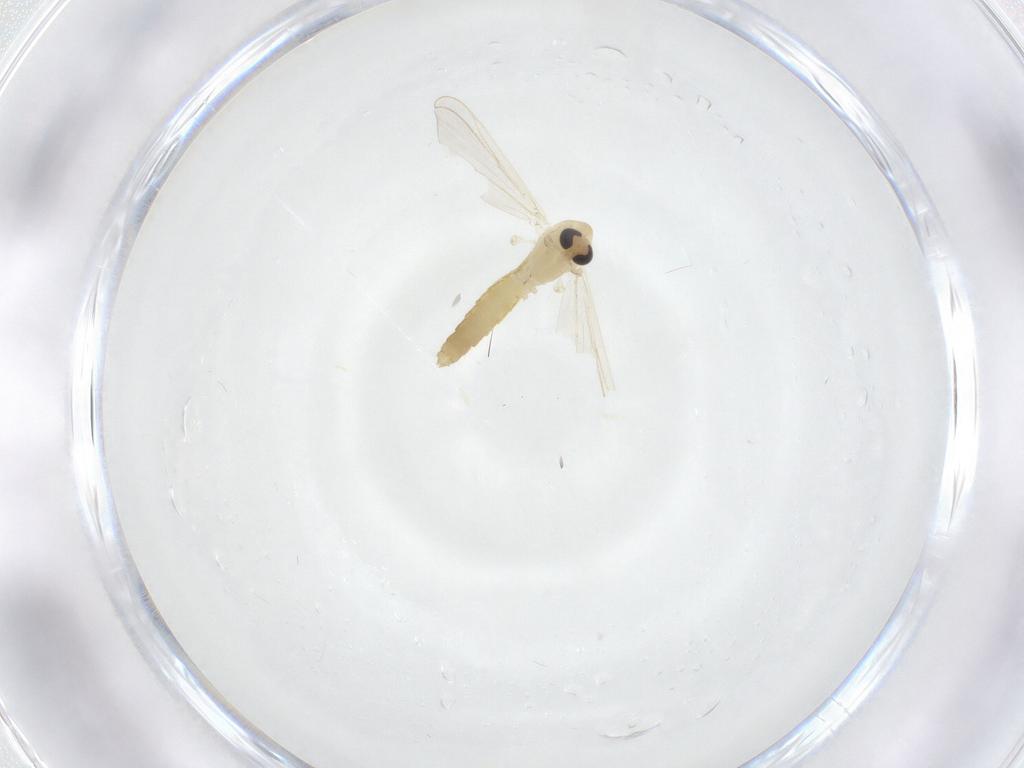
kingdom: Animalia
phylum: Arthropoda
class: Insecta
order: Diptera
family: Chironomidae
